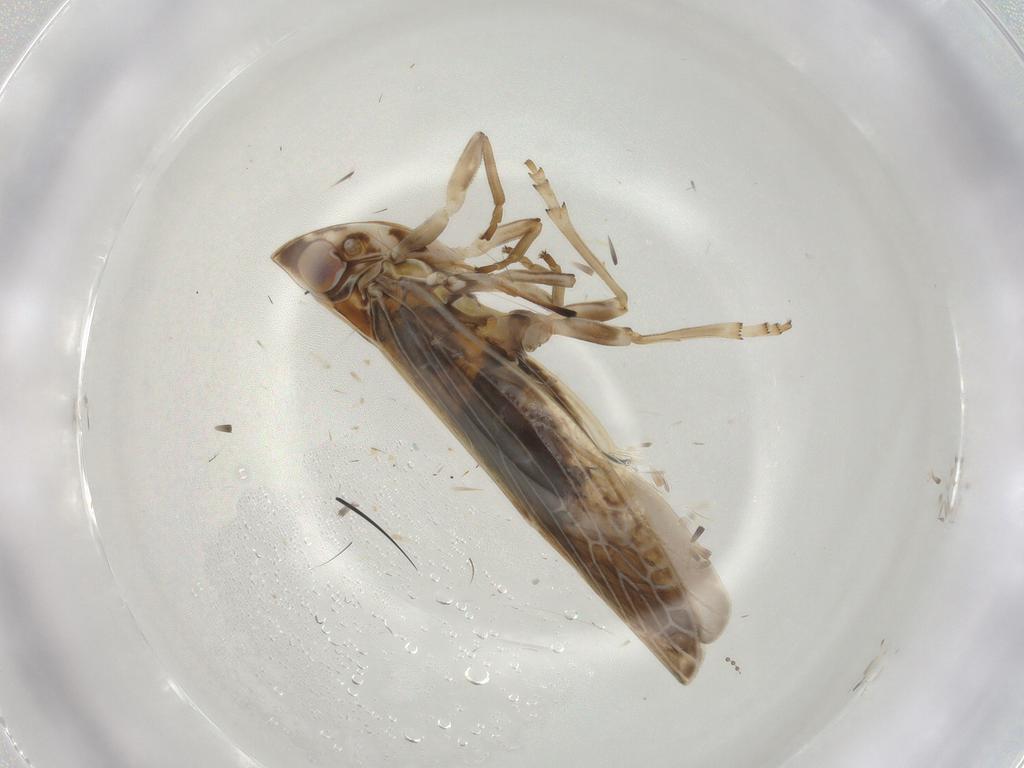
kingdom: Animalia
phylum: Arthropoda
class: Insecta
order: Hemiptera
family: Achilidae
